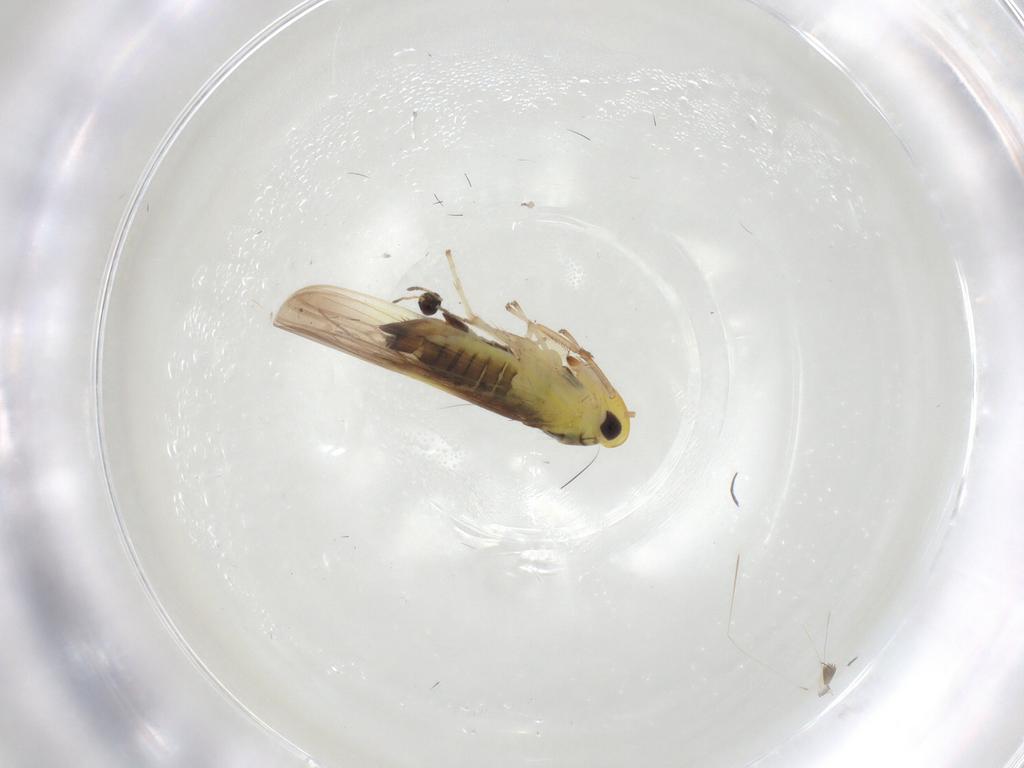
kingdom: Animalia
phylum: Arthropoda
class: Insecta
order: Hemiptera
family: Cicadellidae
